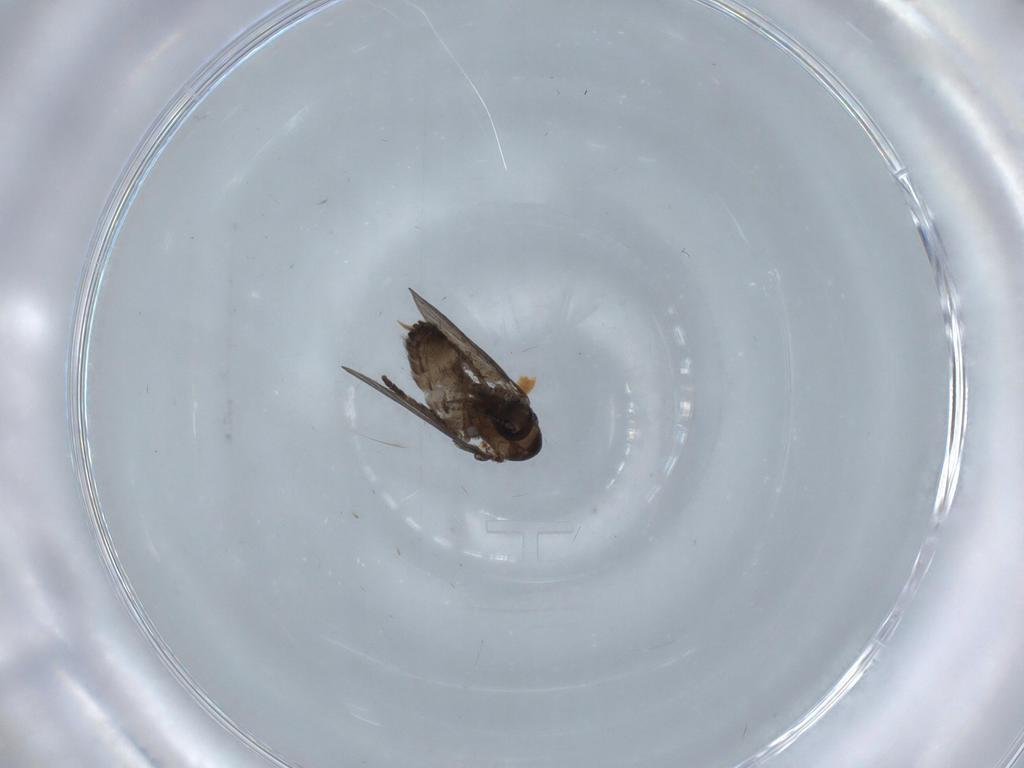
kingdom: Animalia
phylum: Arthropoda
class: Insecta
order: Diptera
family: Psychodidae
